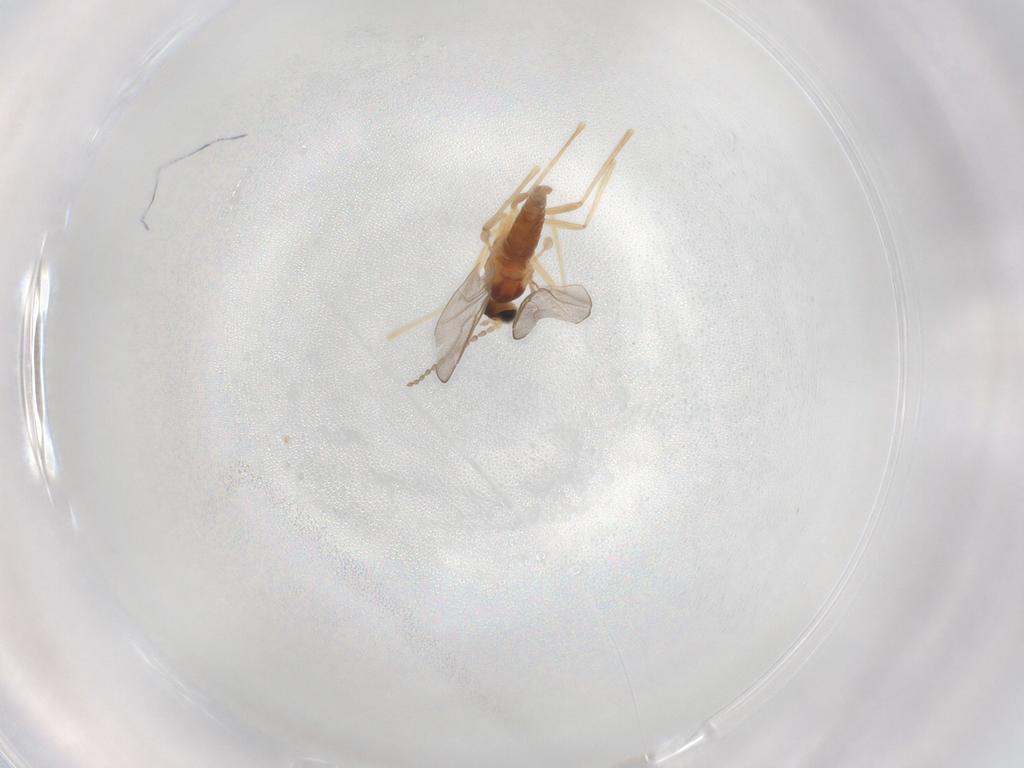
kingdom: Animalia
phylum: Arthropoda
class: Insecta
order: Diptera
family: Cecidomyiidae
